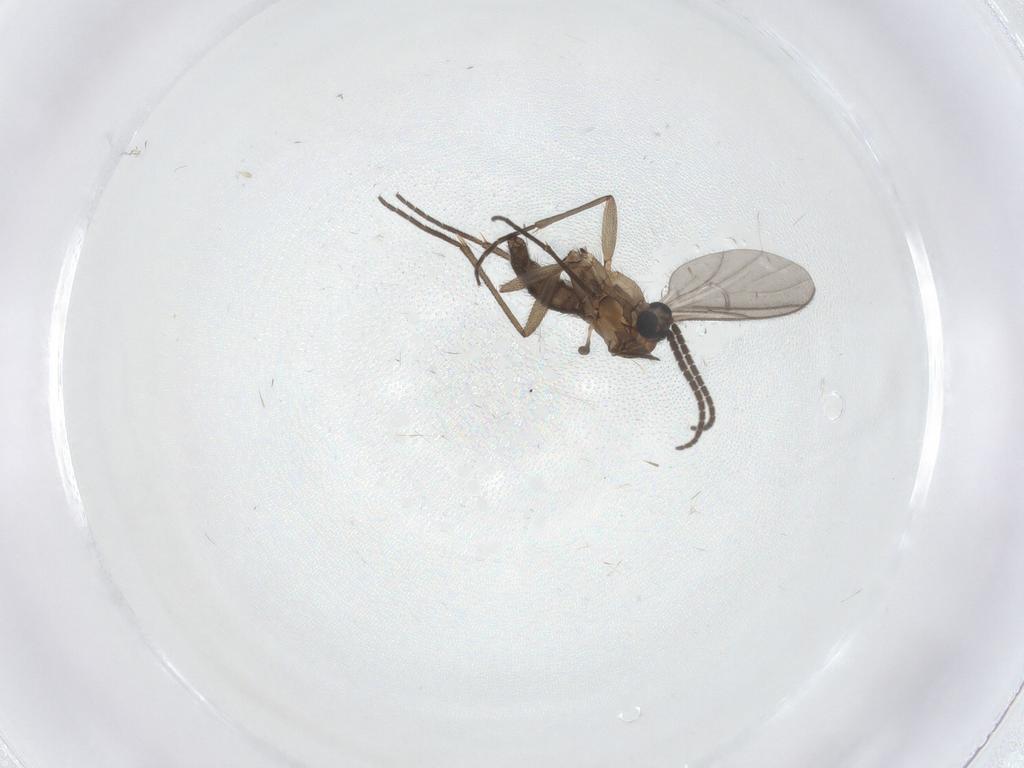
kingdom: Animalia
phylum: Arthropoda
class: Insecta
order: Diptera
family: Sciaridae
